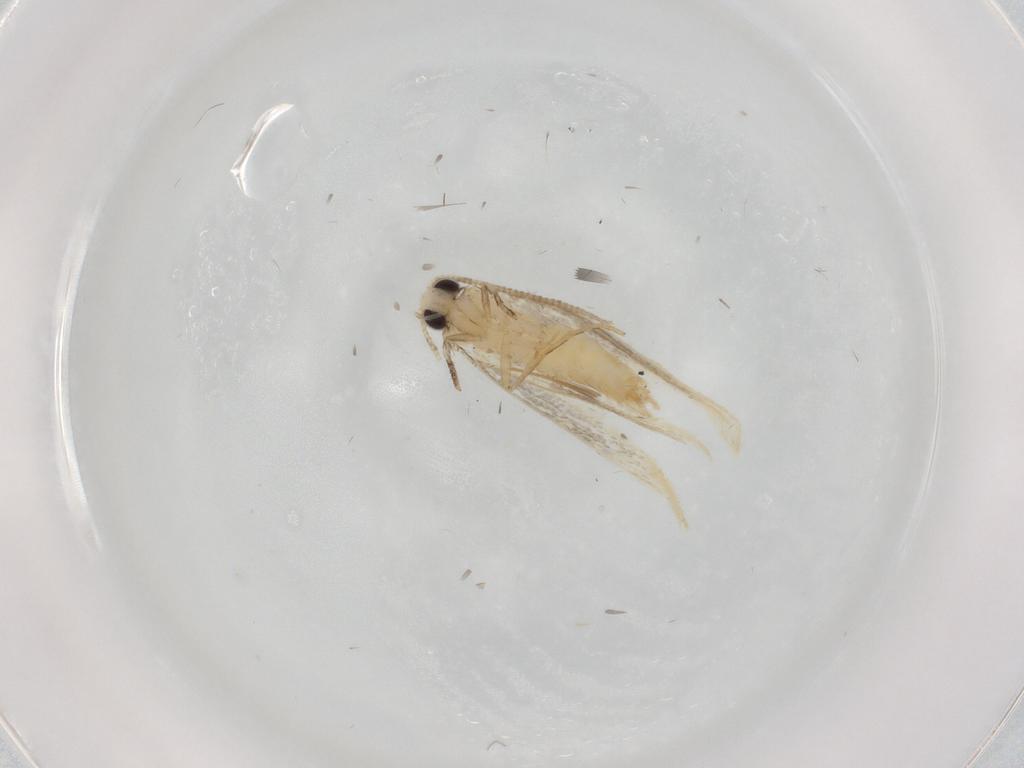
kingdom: Animalia
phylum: Arthropoda
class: Insecta
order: Lepidoptera
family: Tineidae
